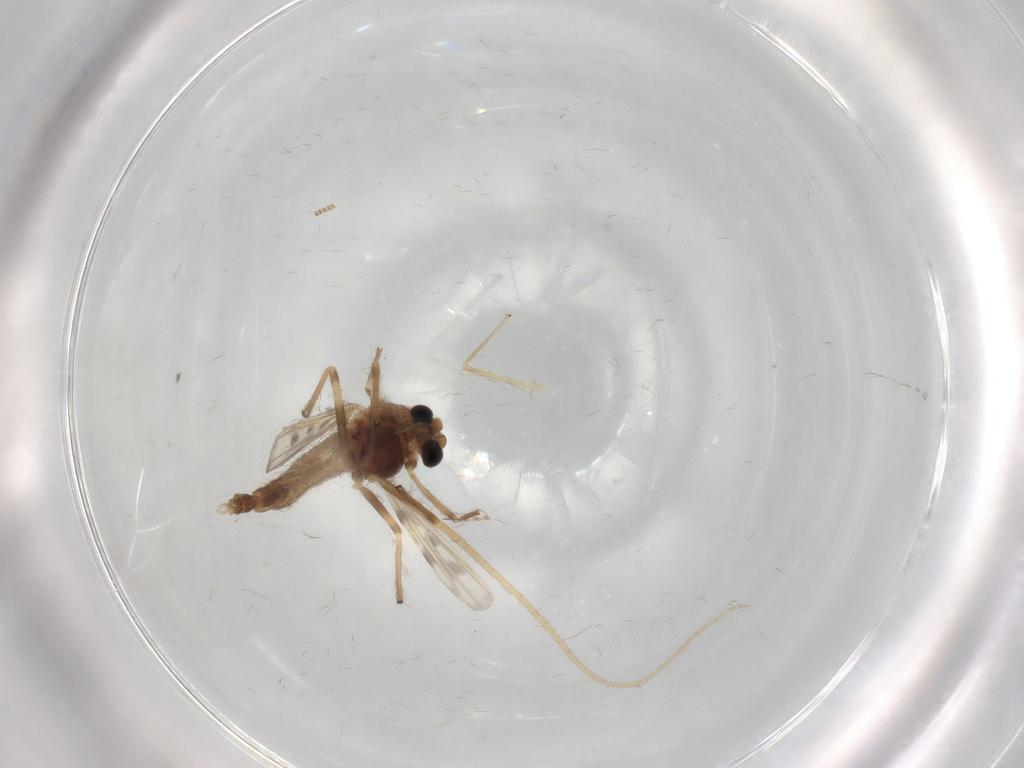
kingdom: Animalia
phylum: Arthropoda
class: Insecta
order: Diptera
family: Chironomidae
